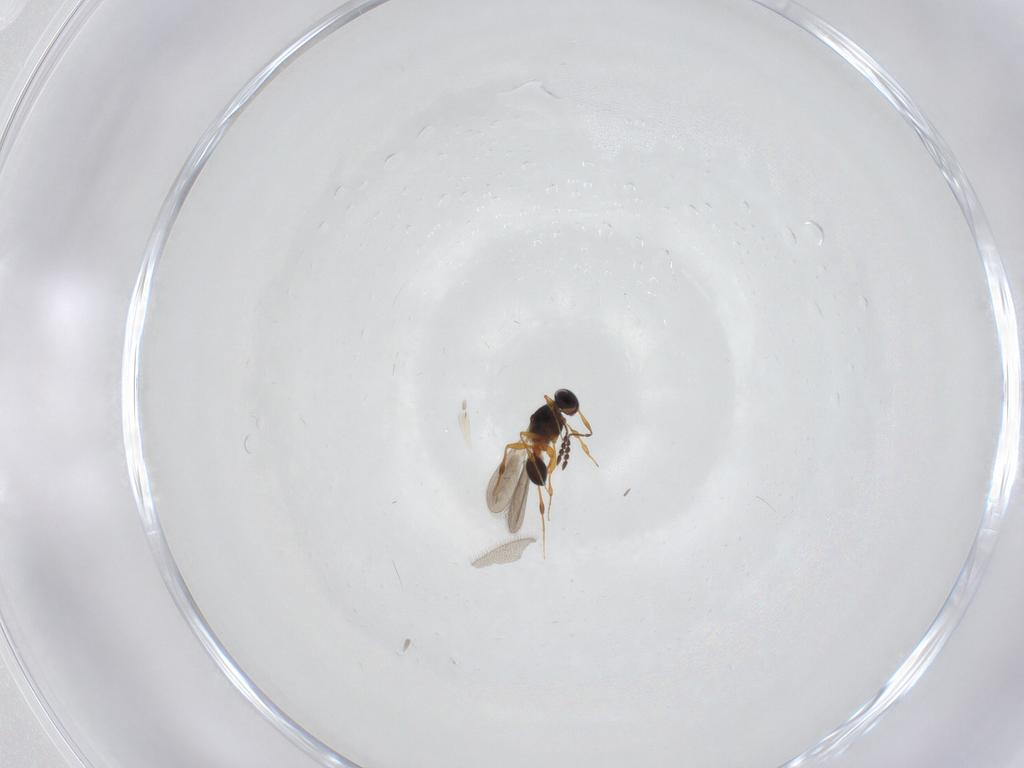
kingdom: Animalia
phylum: Arthropoda
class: Insecta
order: Hymenoptera
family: Platygastridae
